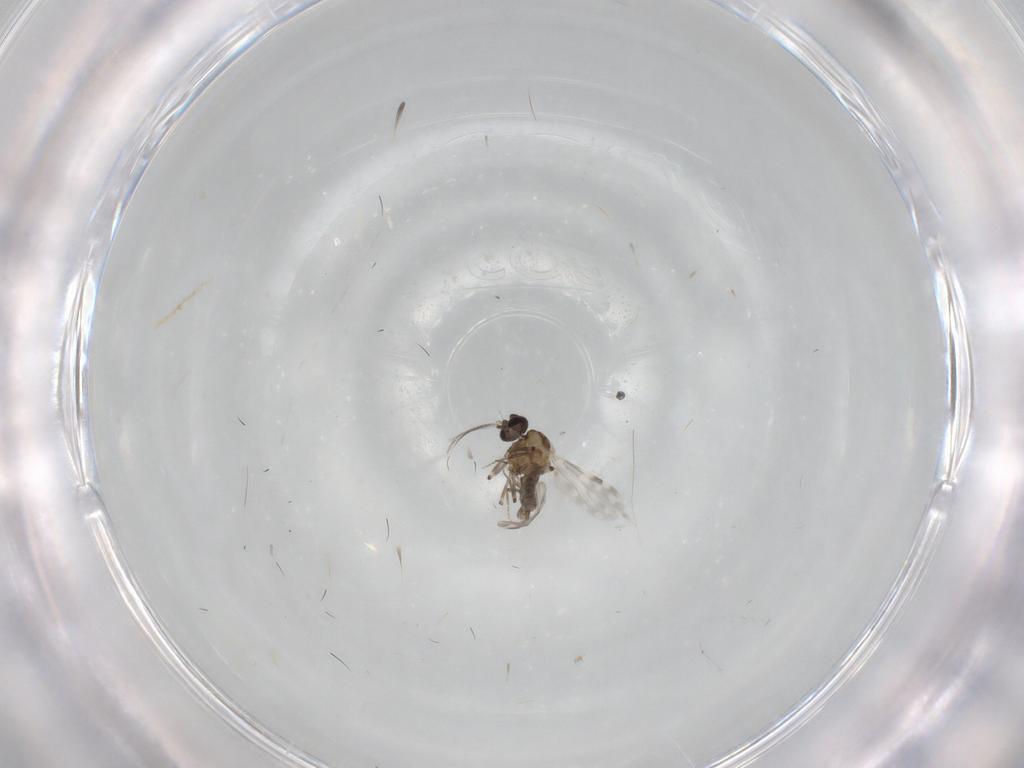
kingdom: Animalia
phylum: Arthropoda
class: Insecta
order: Diptera
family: Ceratopogonidae
